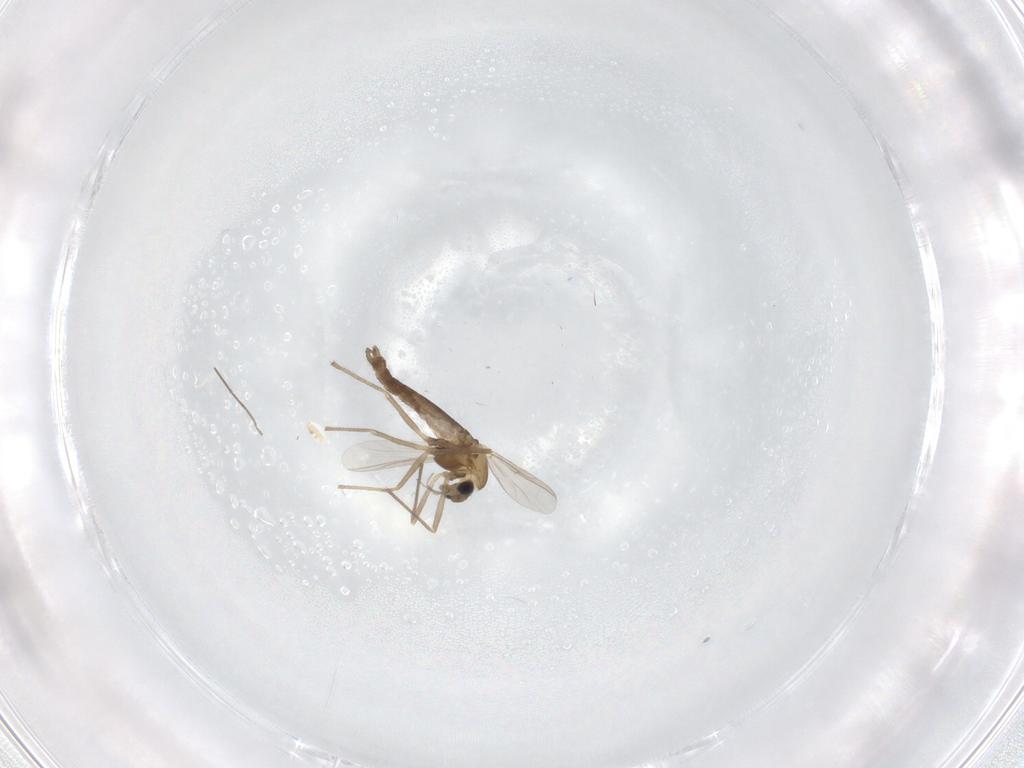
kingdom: Animalia
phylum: Arthropoda
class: Insecta
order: Diptera
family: Chironomidae
